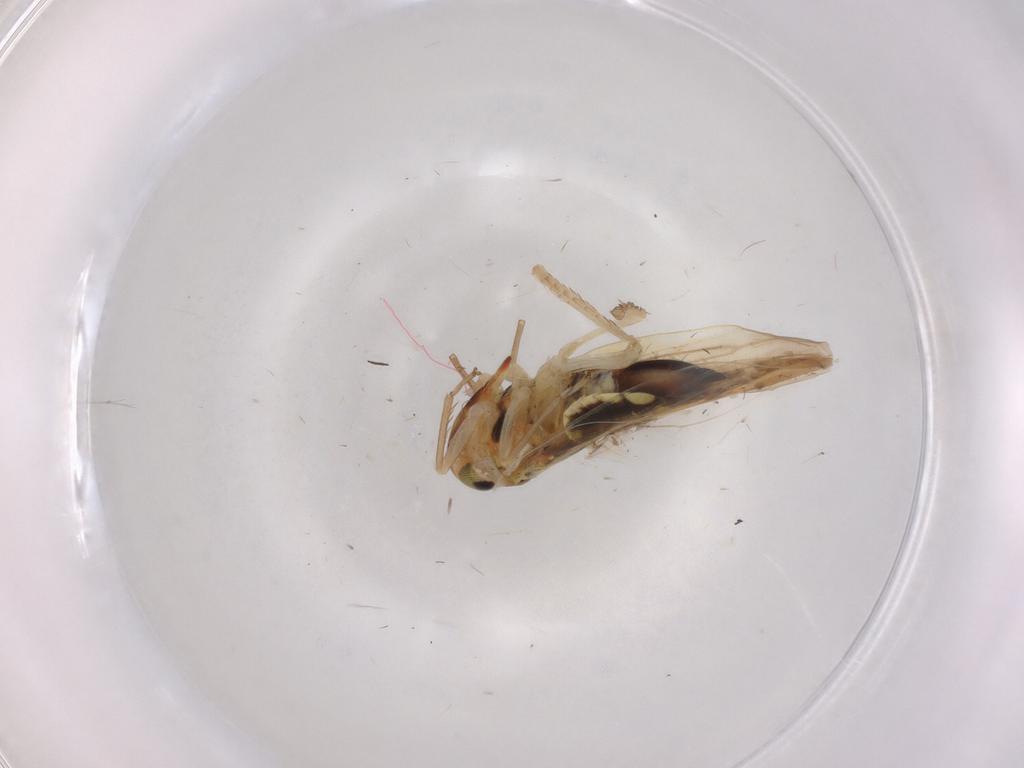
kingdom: Animalia
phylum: Arthropoda
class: Insecta
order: Hemiptera
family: Cicadellidae
